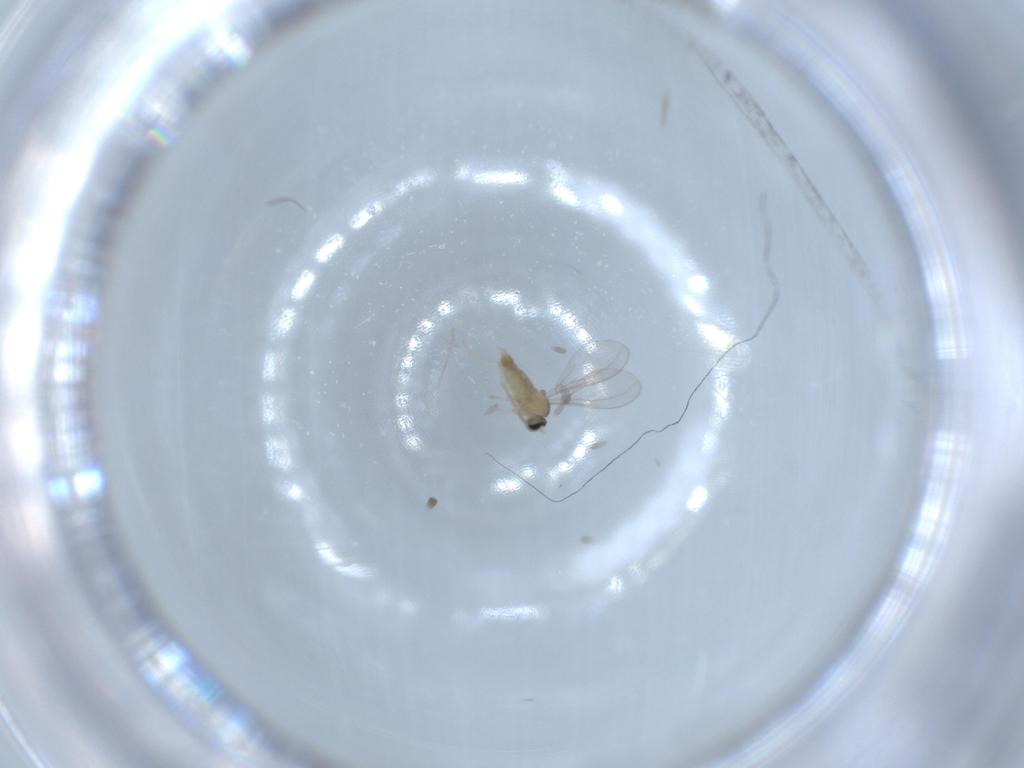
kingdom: Animalia
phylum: Arthropoda
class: Insecta
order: Diptera
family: Cecidomyiidae
